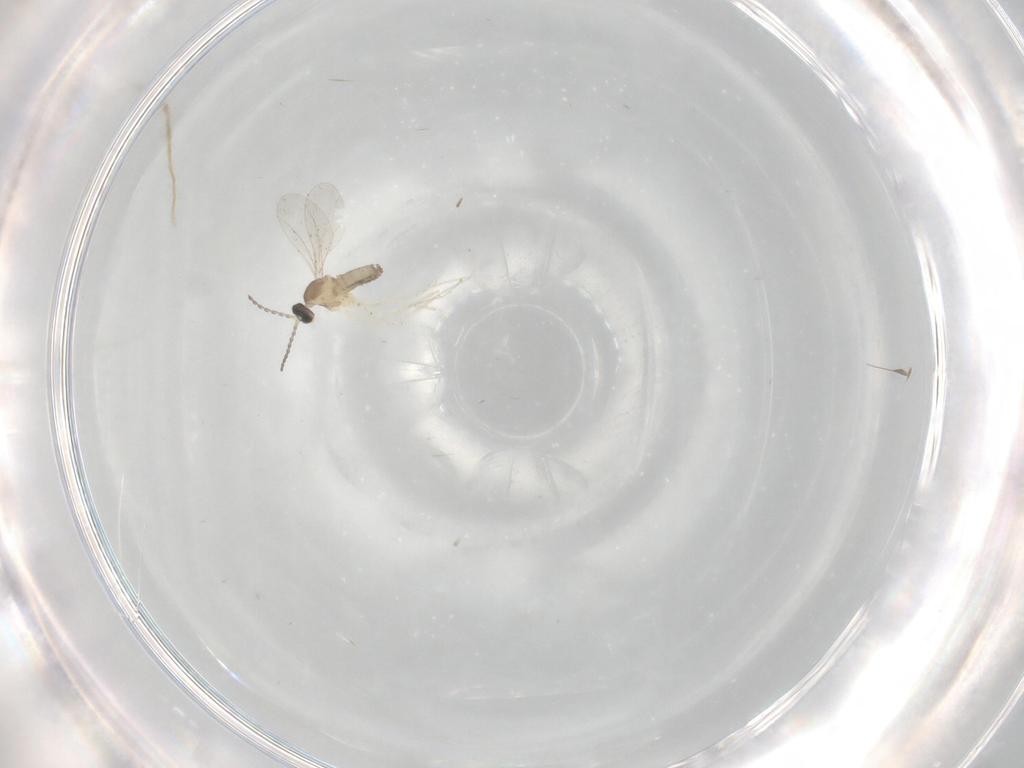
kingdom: Animalia
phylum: Arthropoda
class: Insecta
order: Diptera
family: Cecidomyiidae
